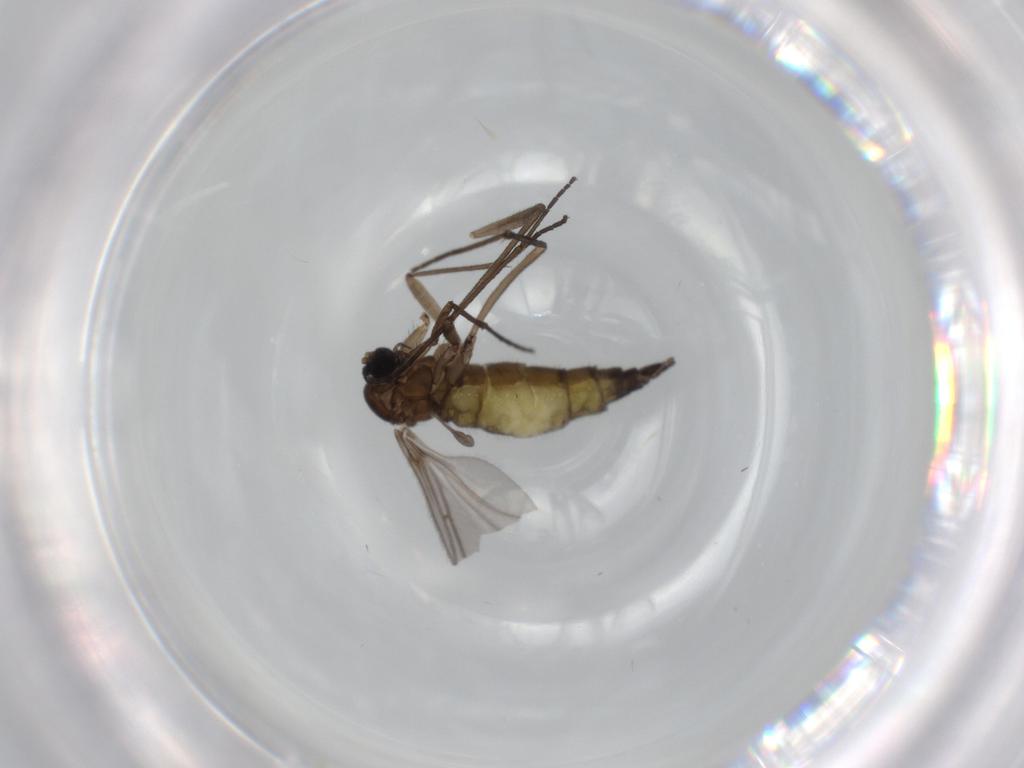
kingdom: Animalia
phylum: Arthropoda
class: Insecta
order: Diptera
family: Sciaridae
